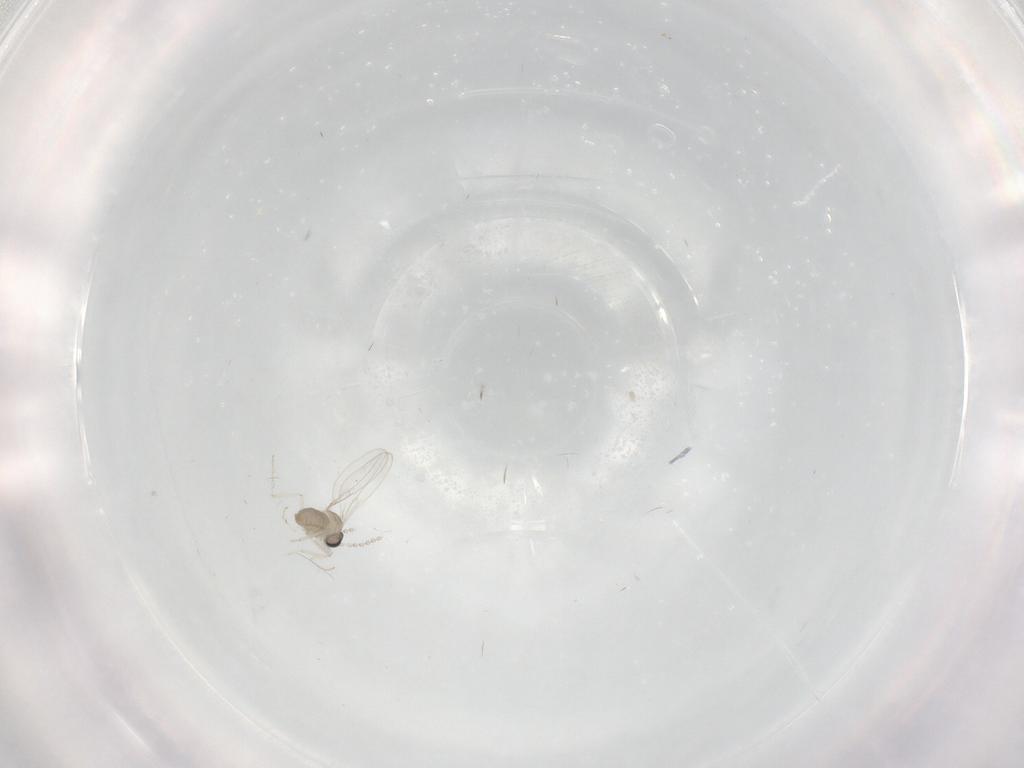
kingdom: Animalia
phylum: Arthropoda
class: Insecta
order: Diptera
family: Cecidomyiidae
